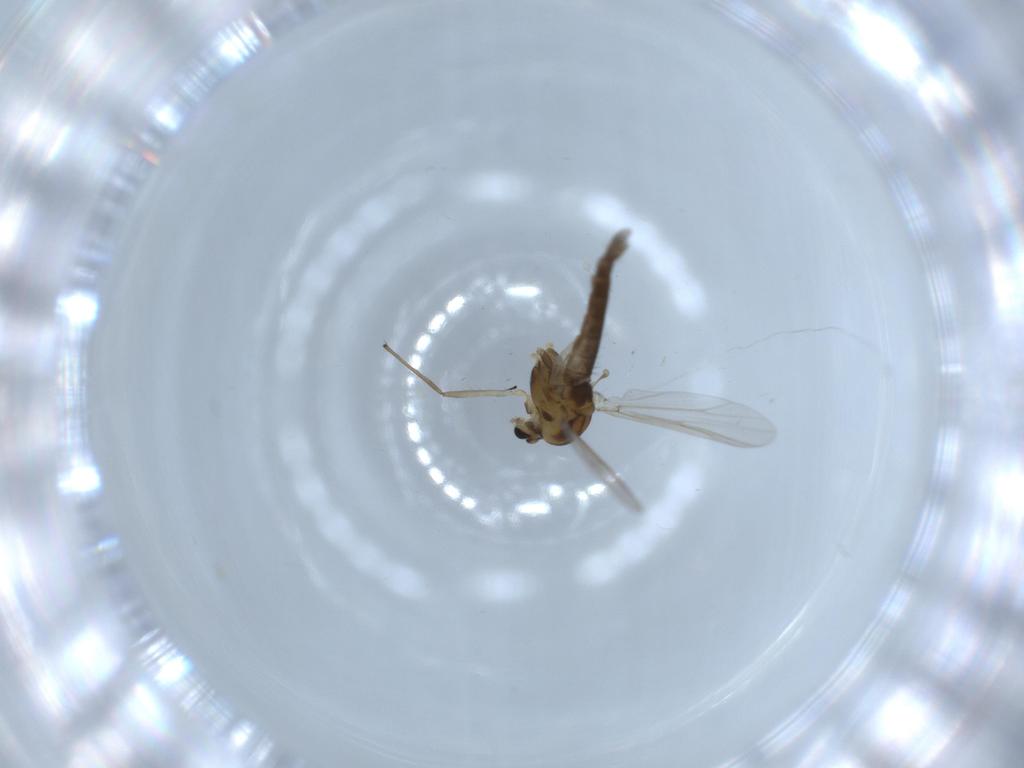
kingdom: Animalia
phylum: Arthropoda
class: Insecta
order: Diptera
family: Chironomidae
